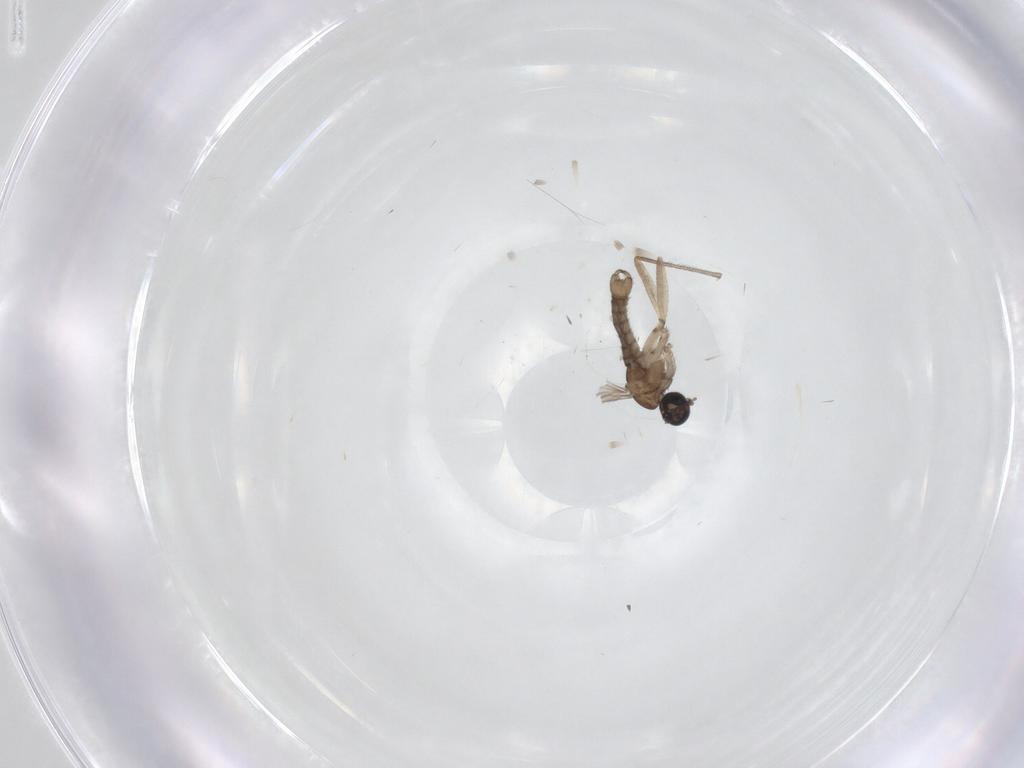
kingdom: Animalia
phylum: Arthropoda
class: Insecta
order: Diptera
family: Sciaridae
